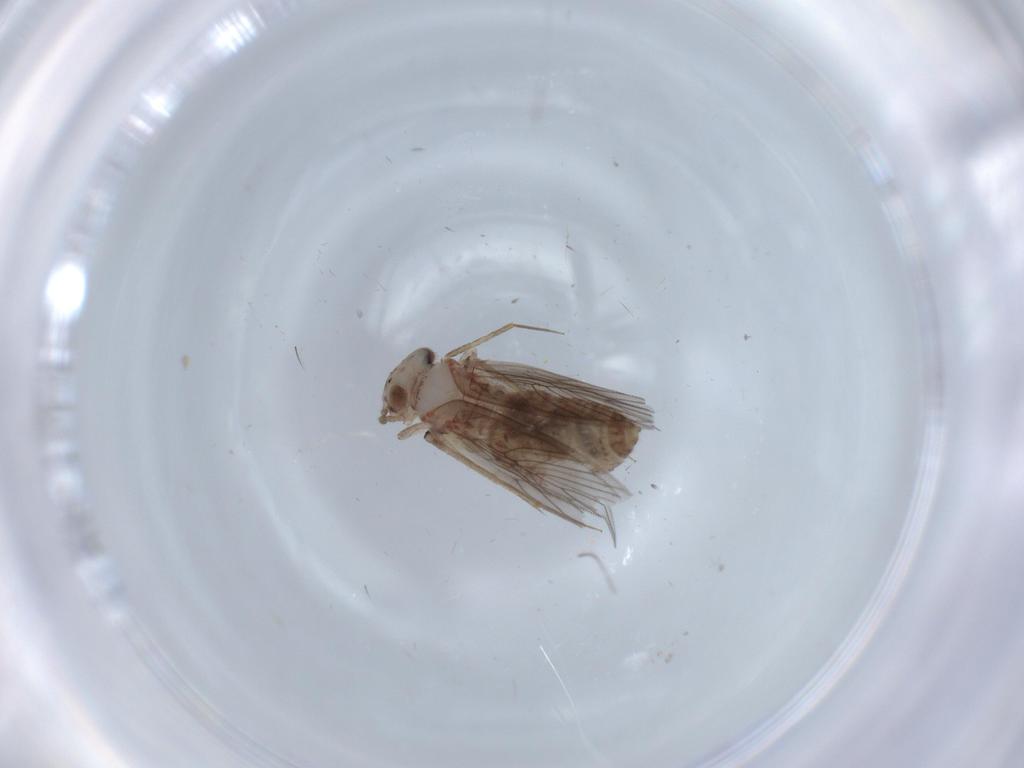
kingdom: Animalia
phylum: Arthropoda
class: Insecta
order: Psocodea
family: Lepidopsocidae
